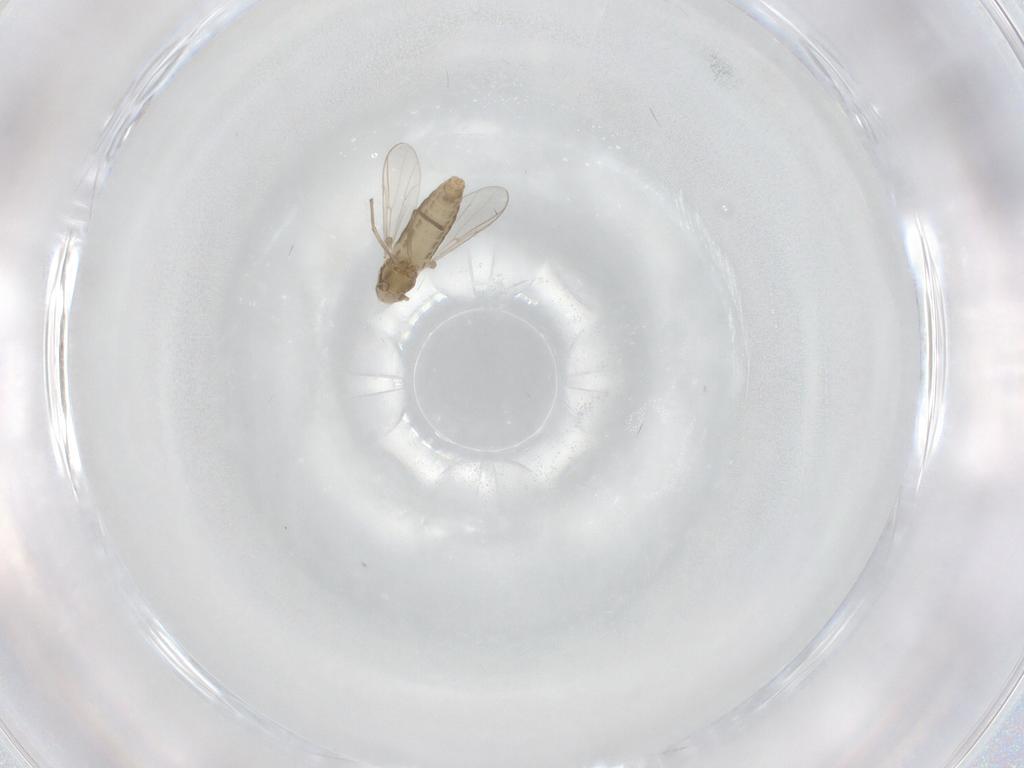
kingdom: Animalia
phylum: Arthropoda
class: Insecta
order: Diptera
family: Chironomidae
